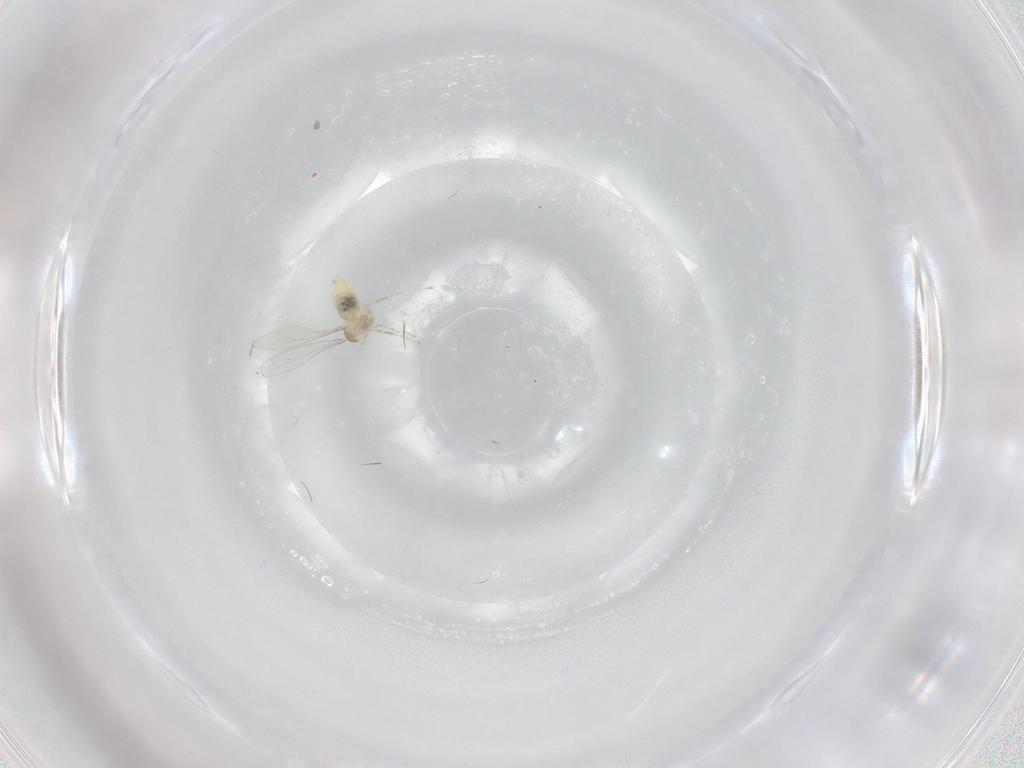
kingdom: Animalia
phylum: Arthropoda
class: Insecta
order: Diptera
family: Cecidomyiidae
